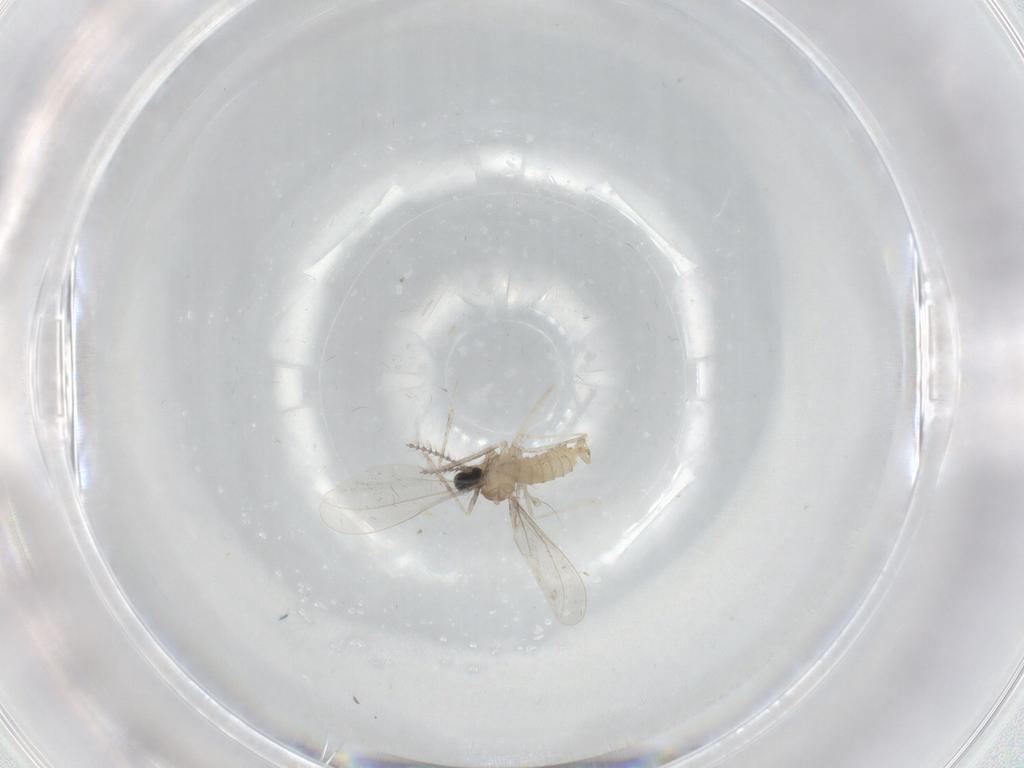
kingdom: Animalia
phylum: Arthropoda
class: Insecta
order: Diptera
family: Cecidomyiidae
